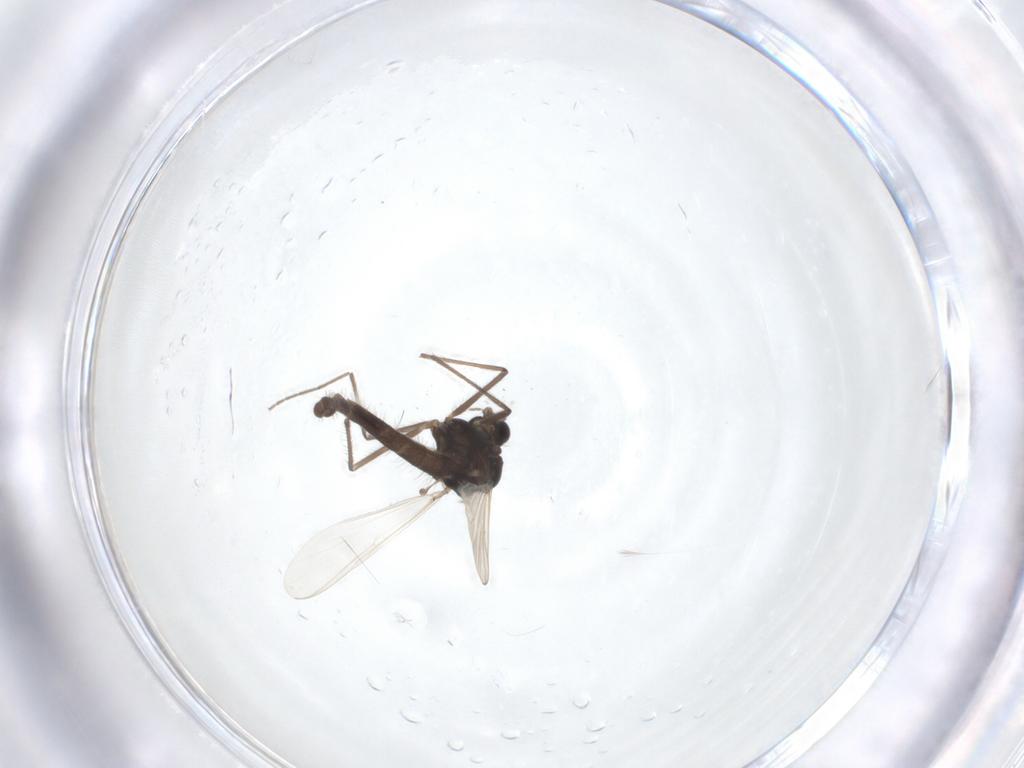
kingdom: Animalia
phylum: Arthropoda
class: Insecta
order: Diptera
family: Chironomidae
